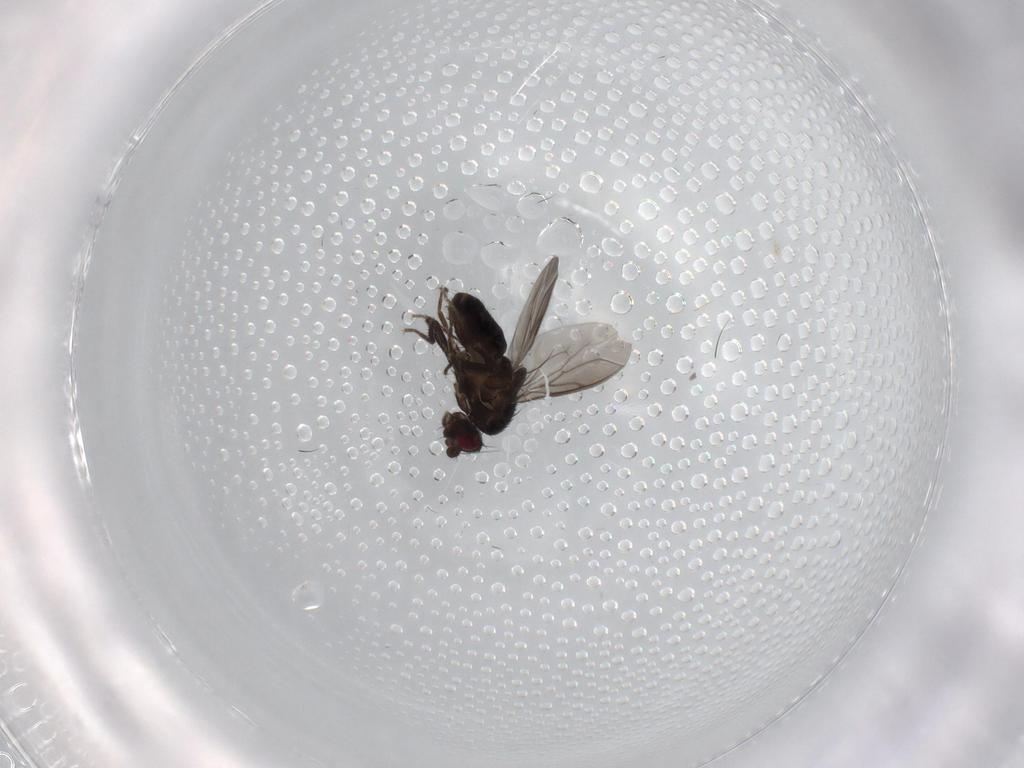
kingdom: Animalia
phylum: Arthropoda
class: Insecta
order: Diptera
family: Sphaeroceridae
